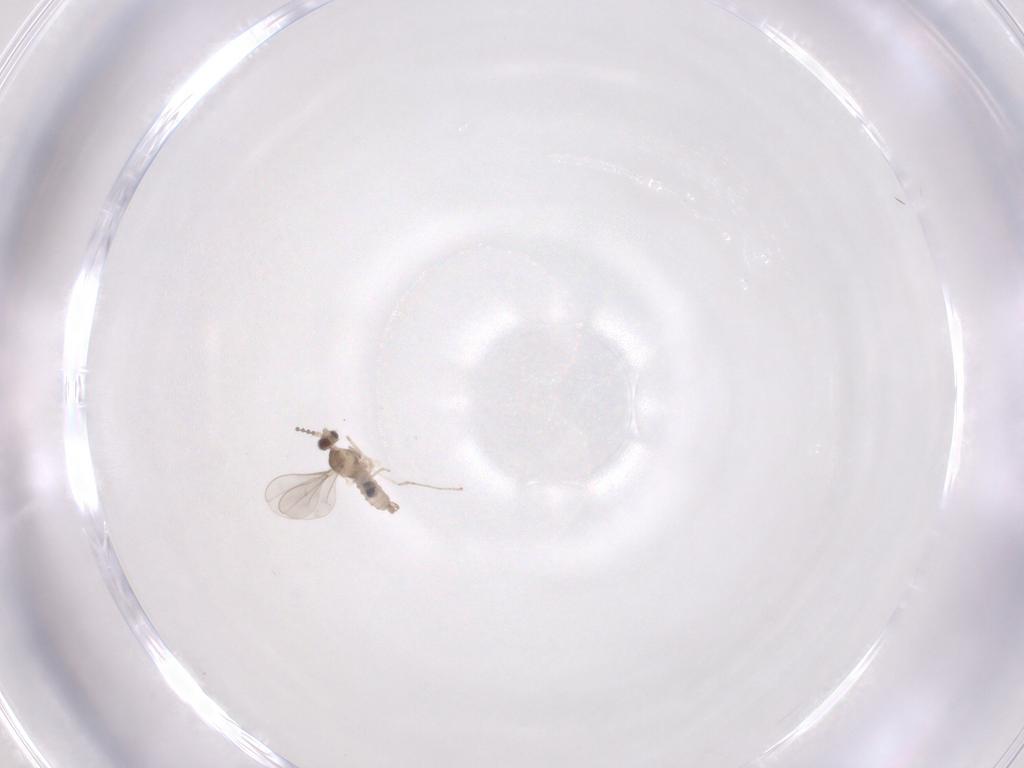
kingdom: Animalia
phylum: Arthropoda
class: Insecta
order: Diptera
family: Cecidomyiidae
